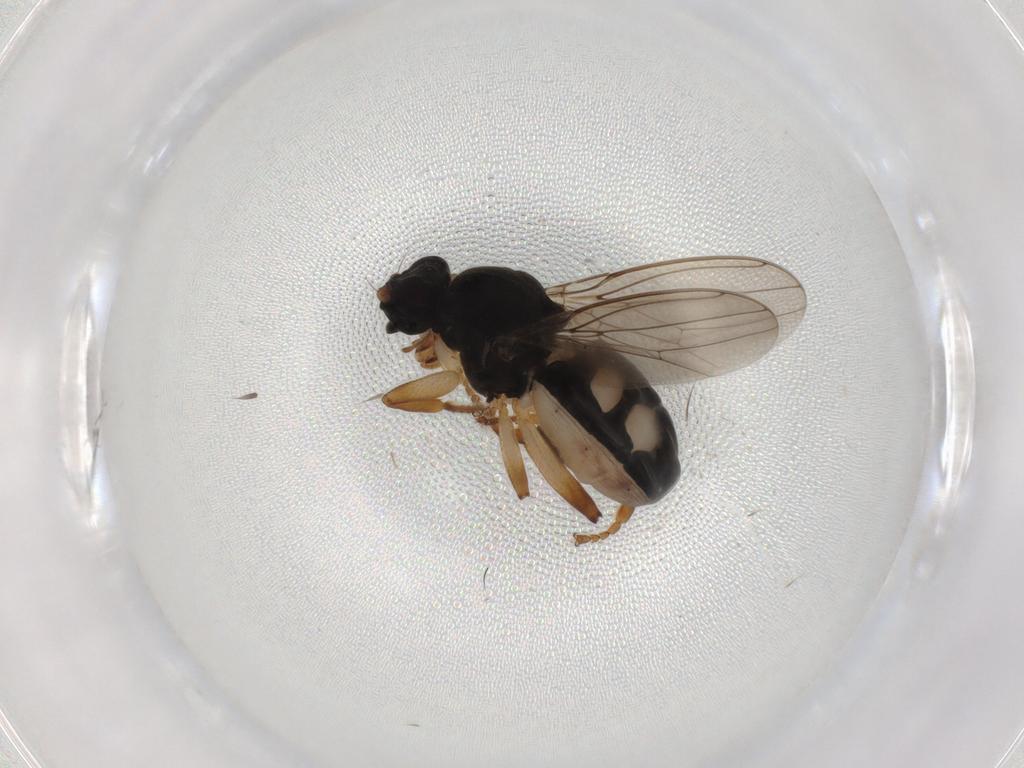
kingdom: Animalia
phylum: Arthropoda
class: Insecta
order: Diptera
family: Sphaeroceridae
